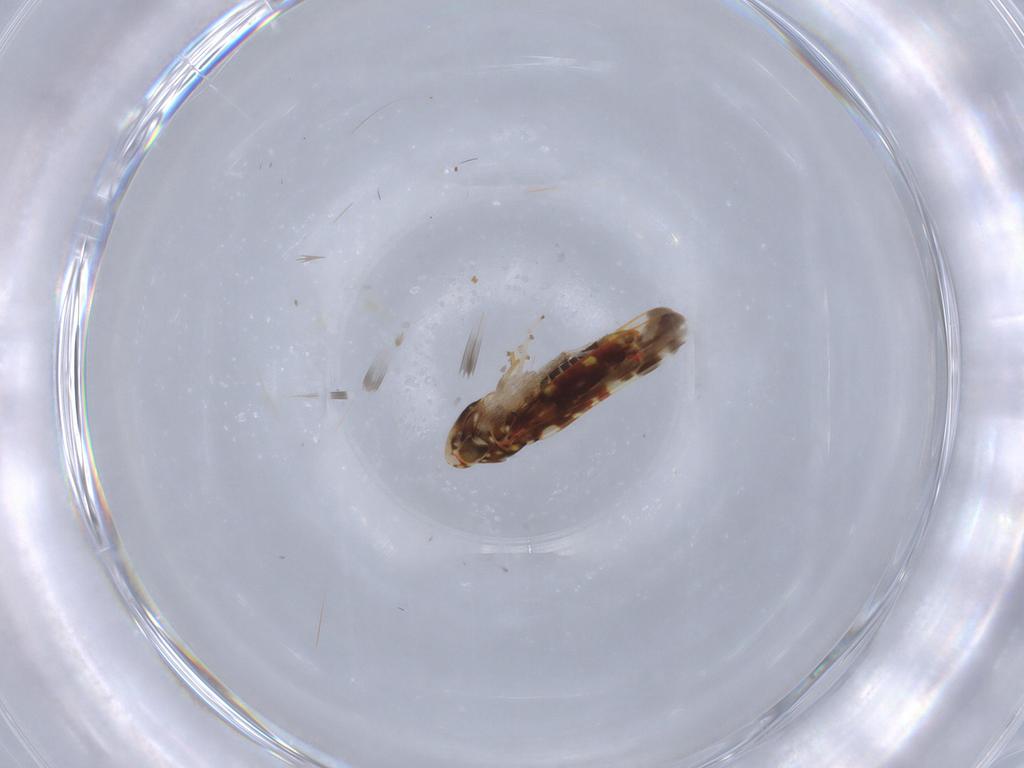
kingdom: Animalia
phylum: Arthropoda
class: Insecta
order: Hemiptera
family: Cicadellidae
